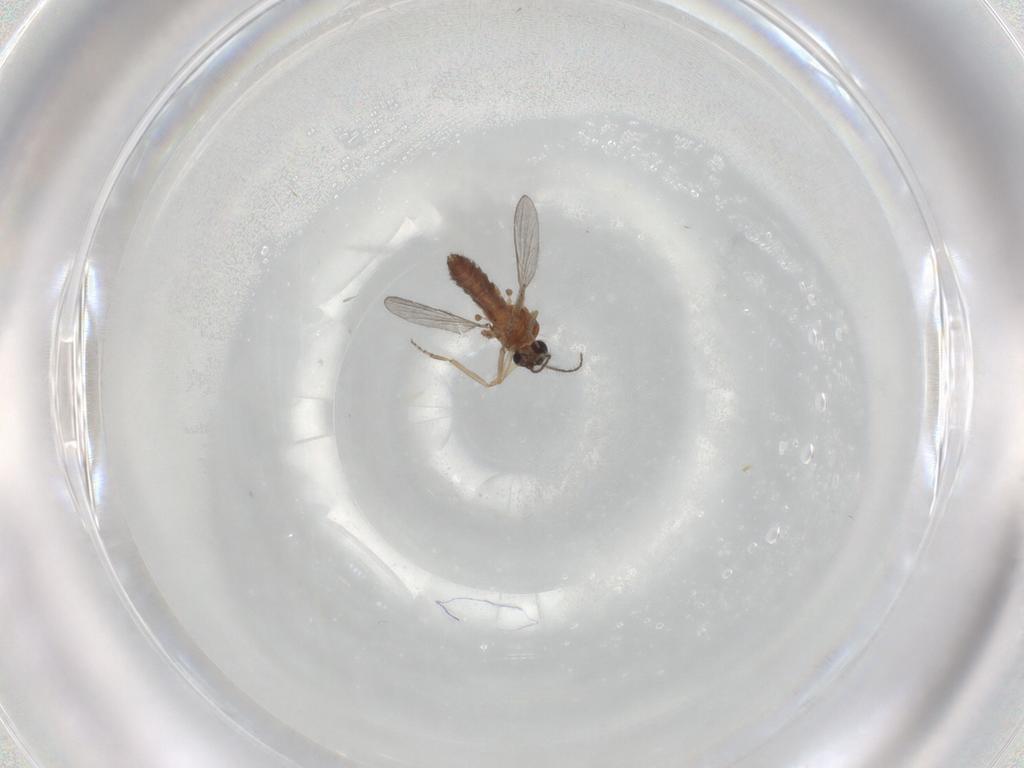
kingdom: Animalia
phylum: Arthropoda
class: Insecta
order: Diptera
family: Ceratopogonidae
